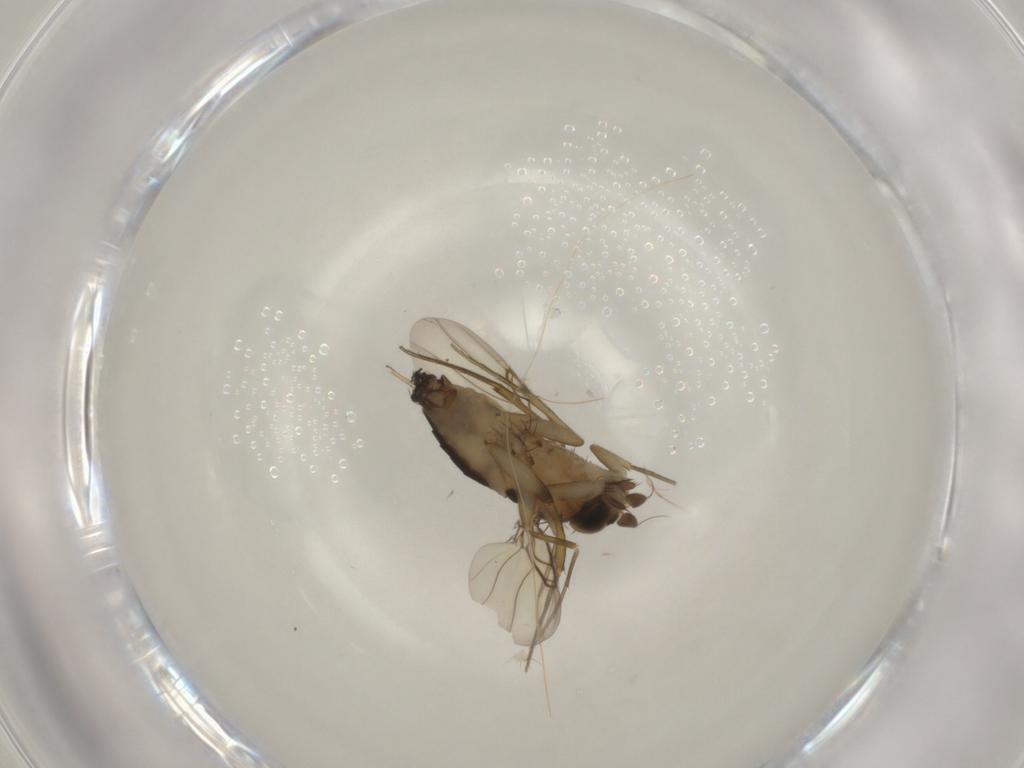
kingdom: Animalia
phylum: Arthropoda
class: Insecta
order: Diptera
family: Phoridae
